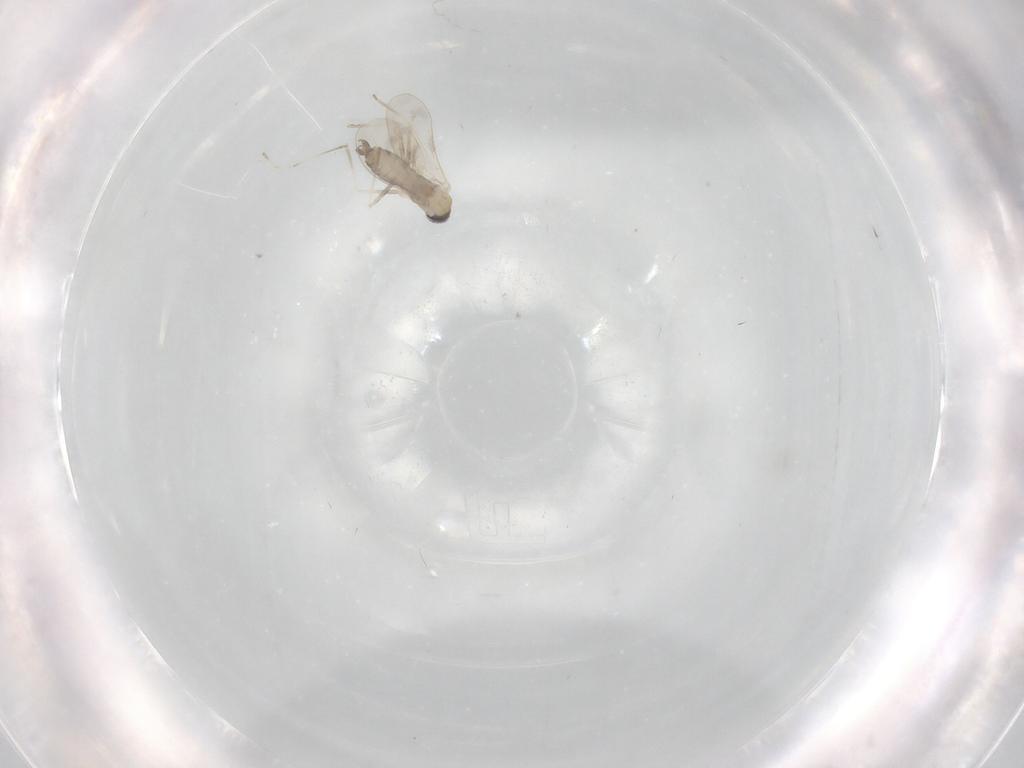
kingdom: Animalia
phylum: Arthropoda
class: Insecta
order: Diptera
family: Cecidomyiidae
